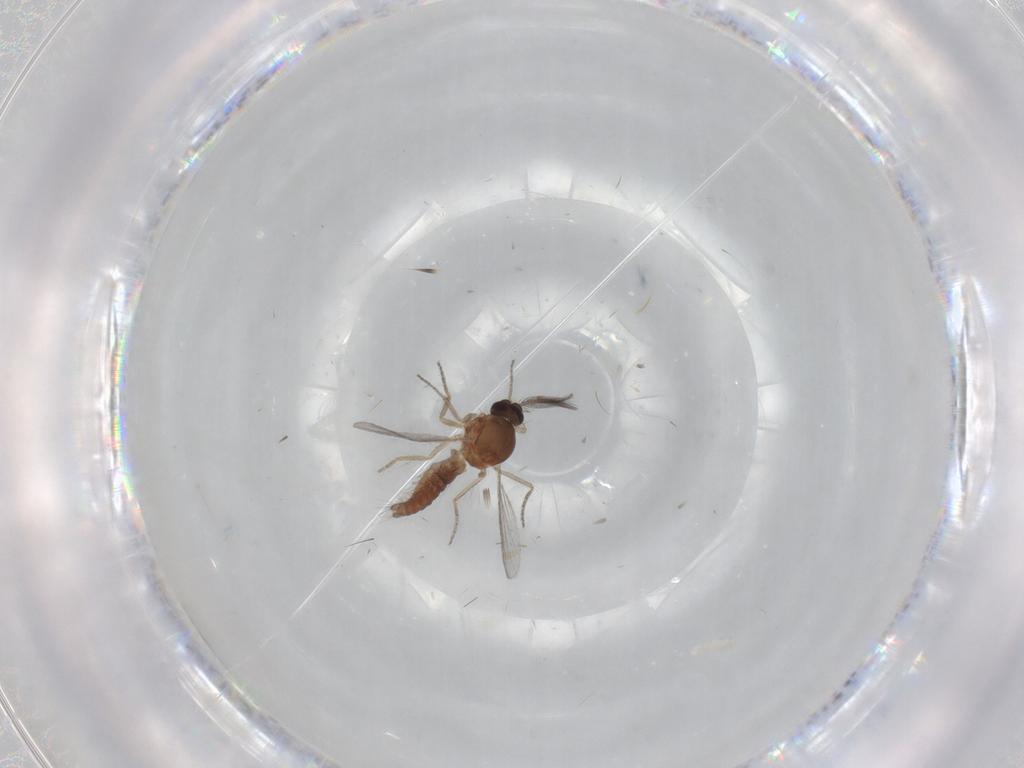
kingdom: Animalia
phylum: Arthropoda
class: Insecta
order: Diptera
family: Ceratopogonidae
